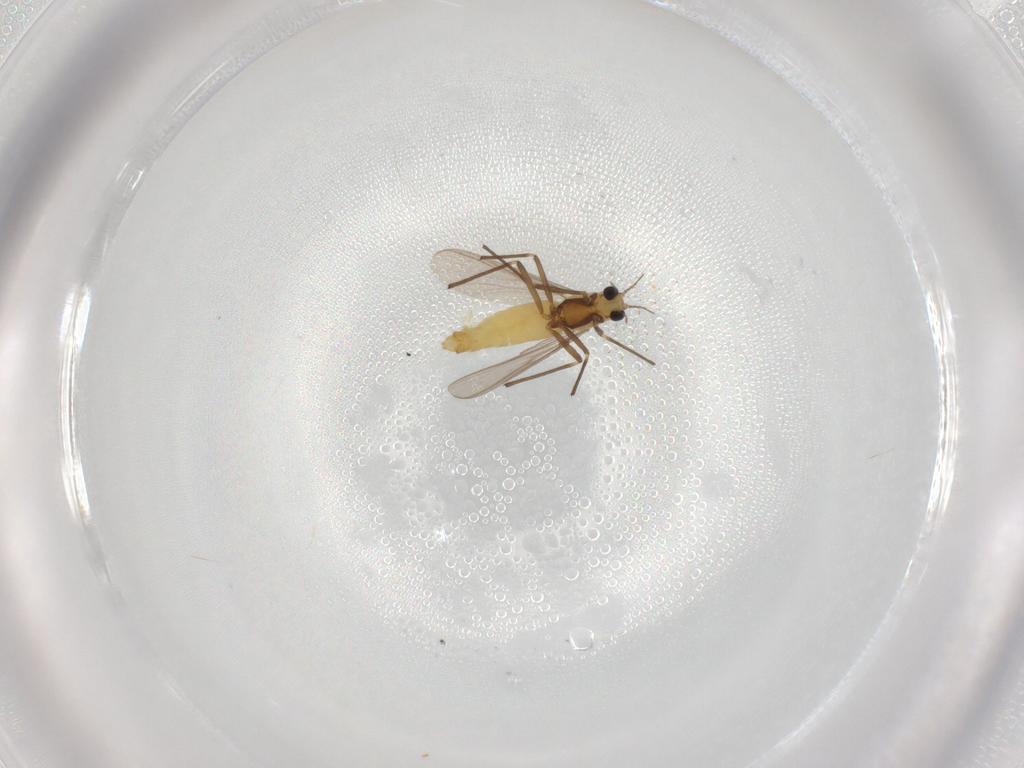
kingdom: Animalia
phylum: Arthropoda
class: Insecta
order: Diptera
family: Chironomidae
